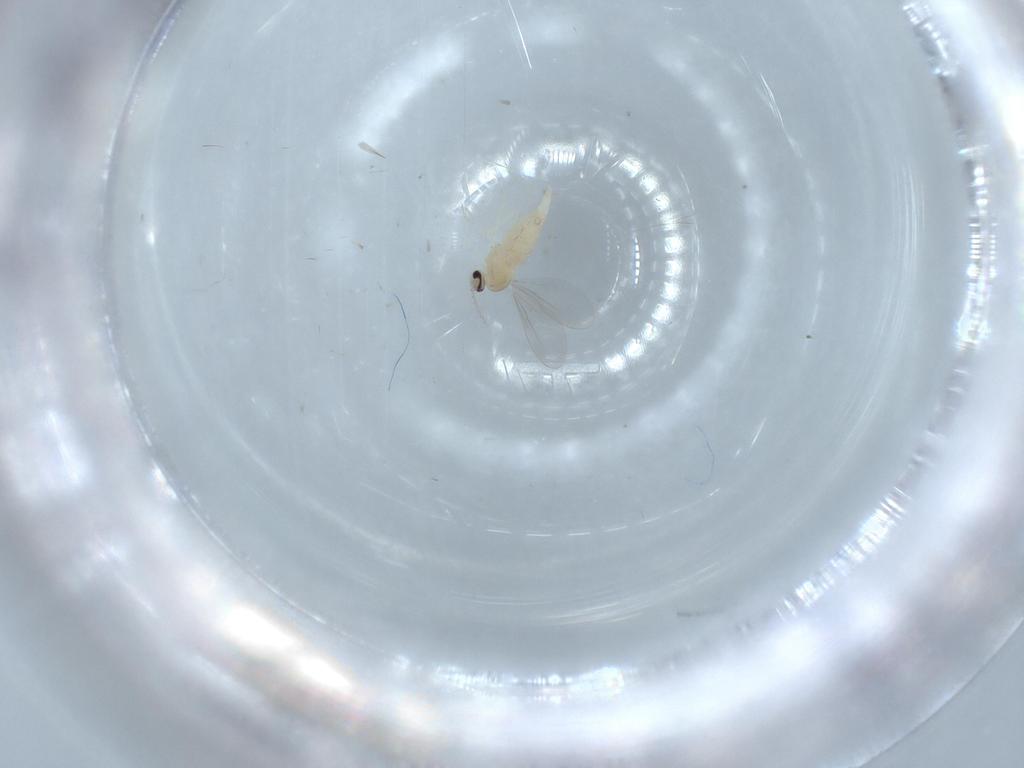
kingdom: Animalia
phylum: Arthropoda
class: Insecta
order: Diptera
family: Cecidomyiidae
